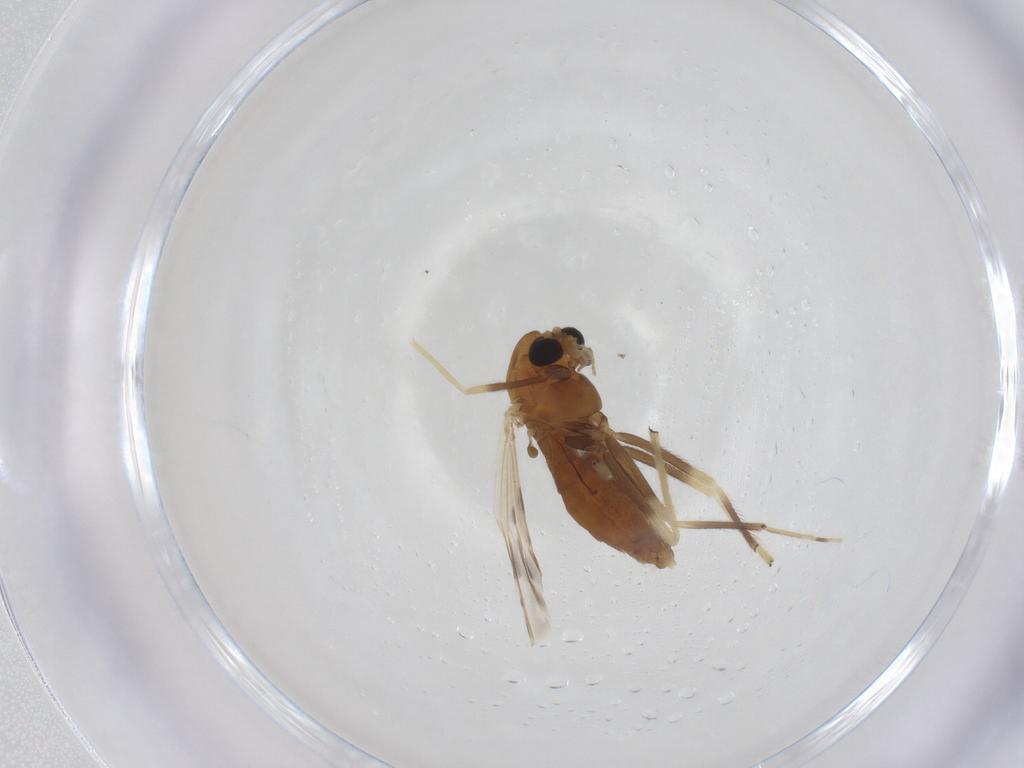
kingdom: Animalia
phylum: Arthropoda
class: Insecta
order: Diptera
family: Chironomidae
